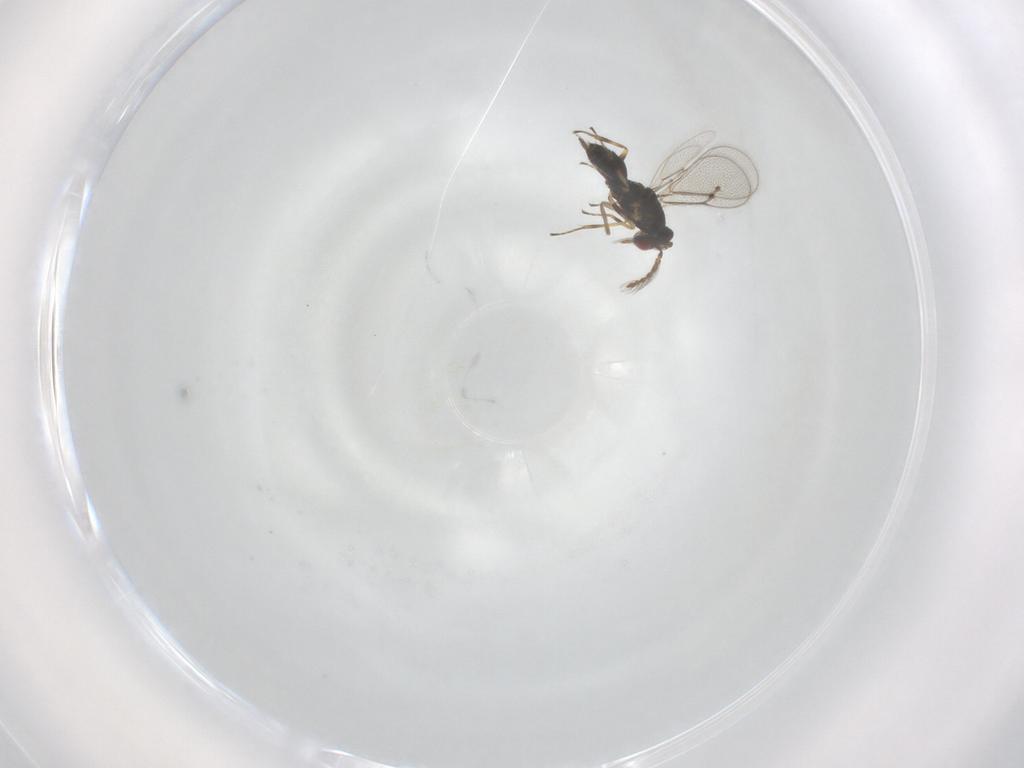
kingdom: Animalia
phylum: Arthropoda
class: Insecta
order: Hymenoptera
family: Eulophidae
